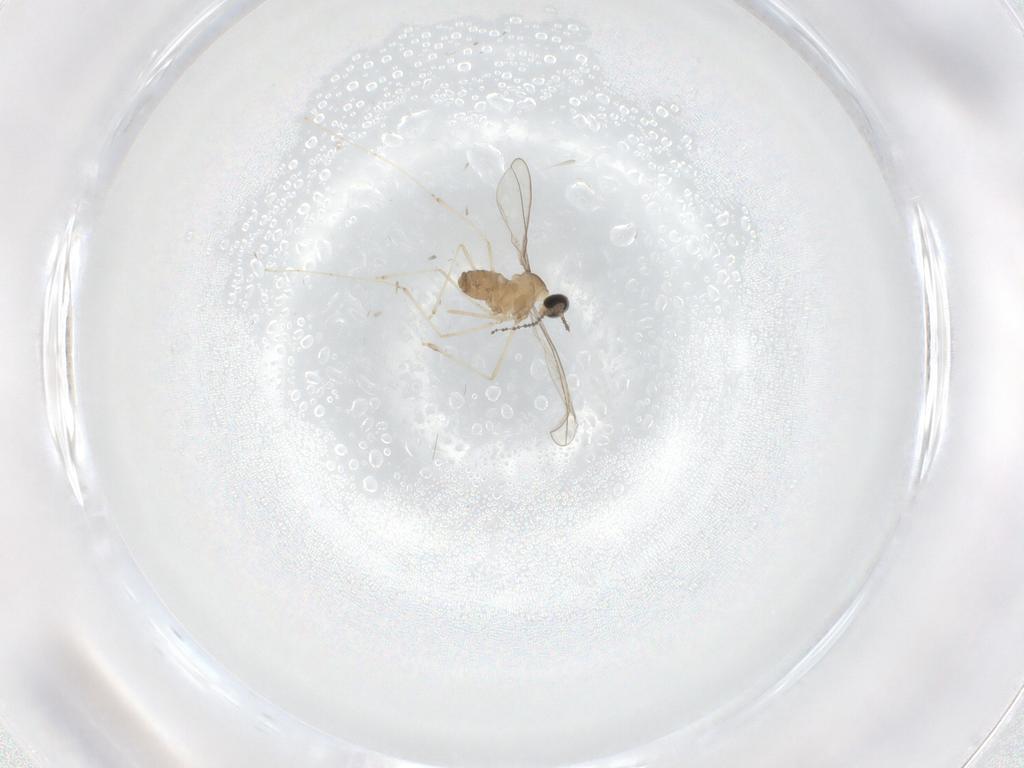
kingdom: Animalia
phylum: Arthropoda
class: Insecta
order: Diptera
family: Cecidomyiidae
